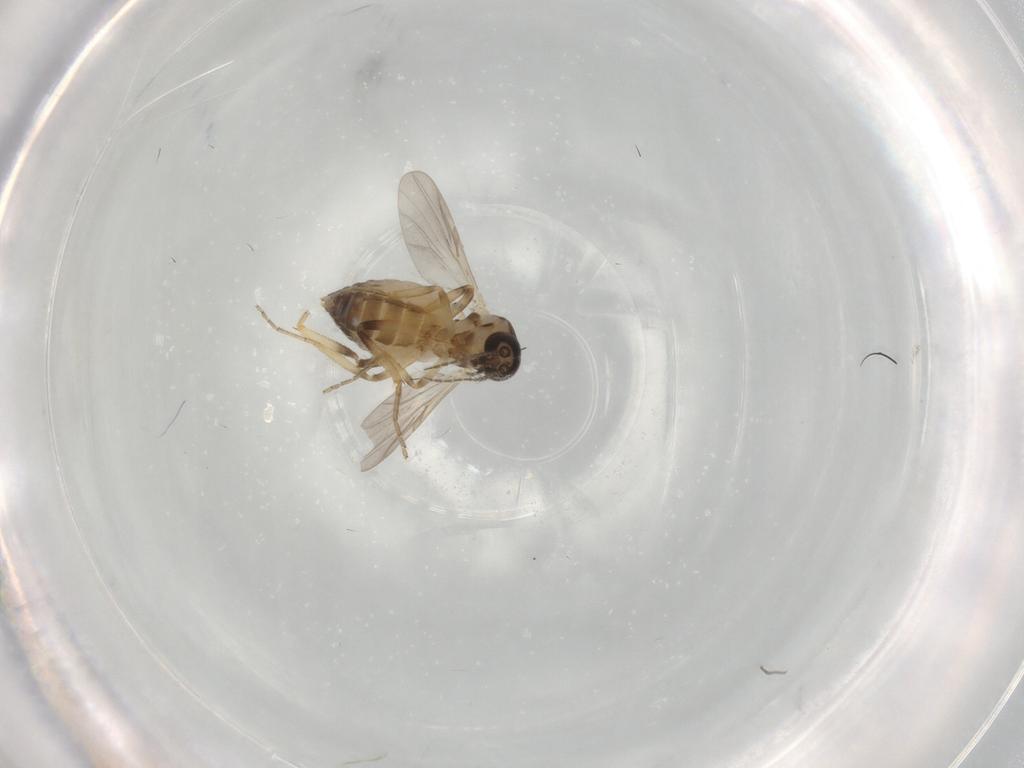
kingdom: Animalia
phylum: Arthropoda
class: Insecta
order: Diptera
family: Ceratopogonidae
